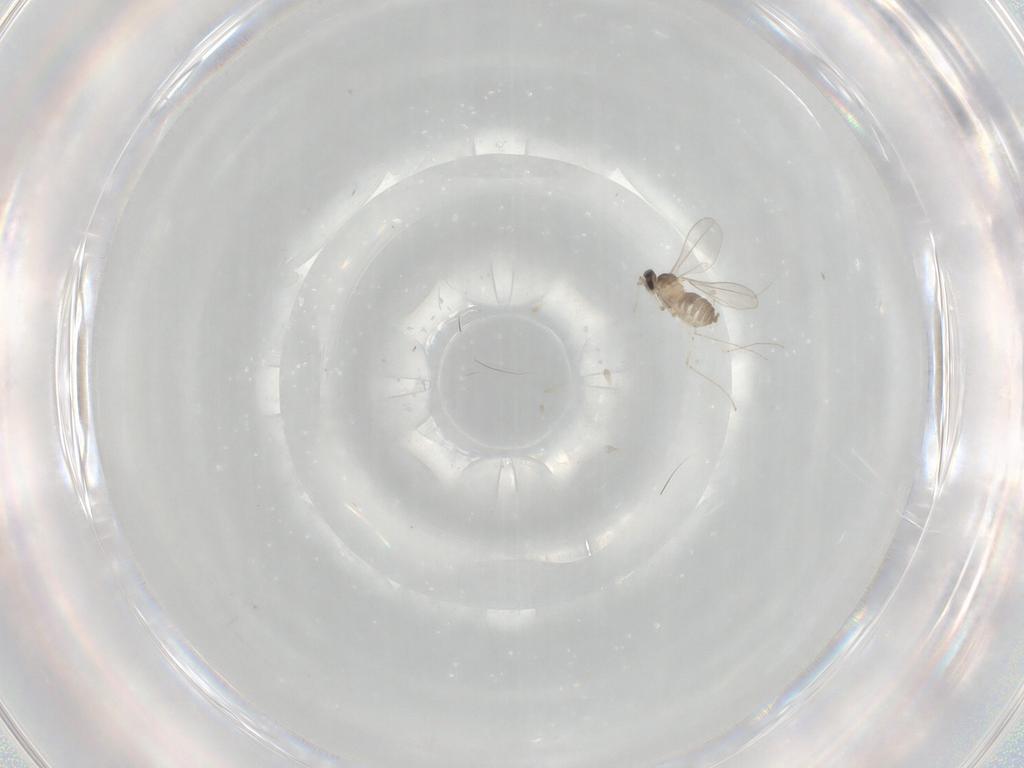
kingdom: Animalia
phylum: Arthropoda
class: Insecta
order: Diptera
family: Cecidomyiidae
